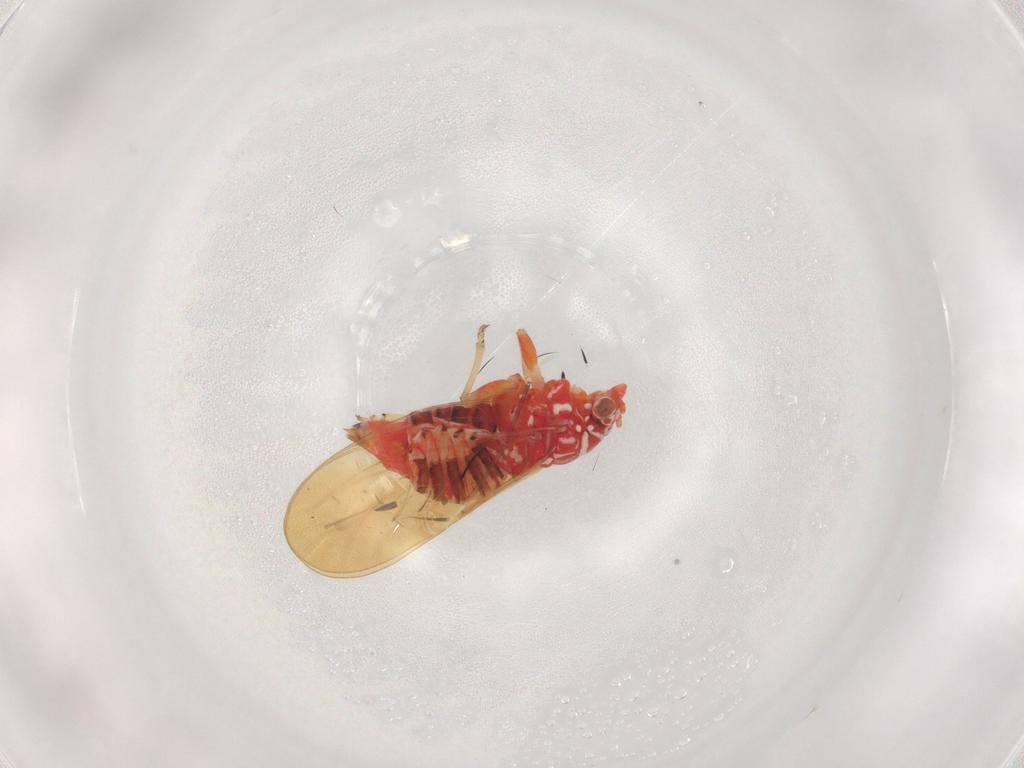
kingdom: Animalia
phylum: Arthropoda
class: Insecta
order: Hemiptera
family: Psyllidae
